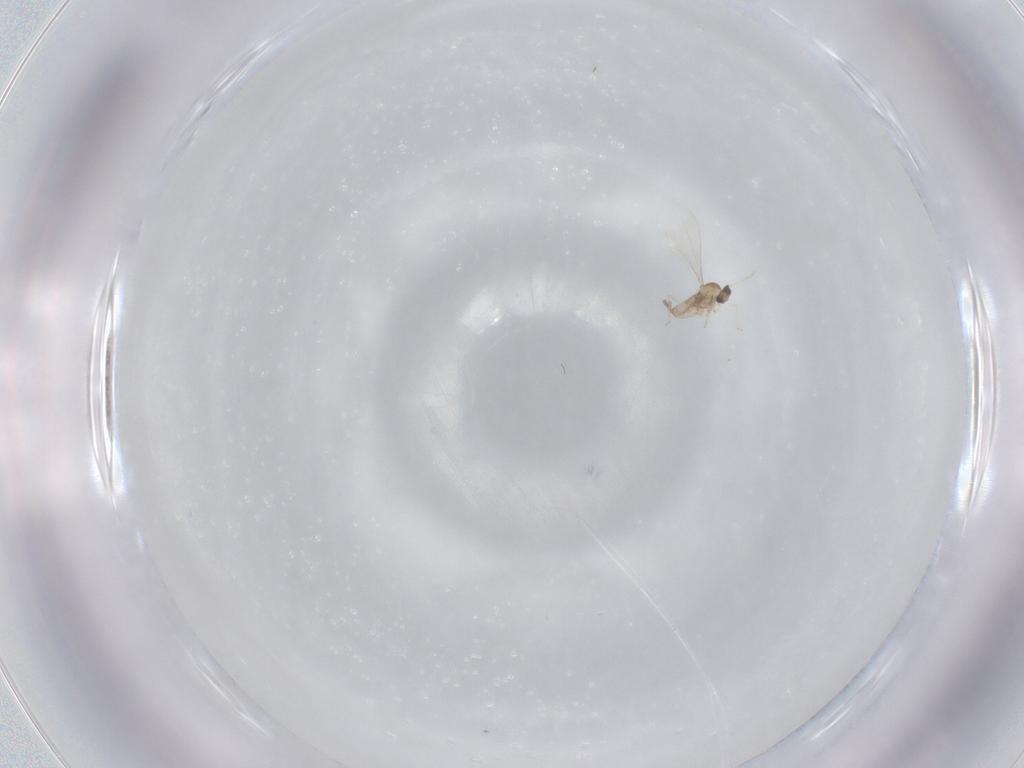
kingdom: Animalia
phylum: Arthropoda
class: Insecta
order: Diptera
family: Cecidomyiidae
